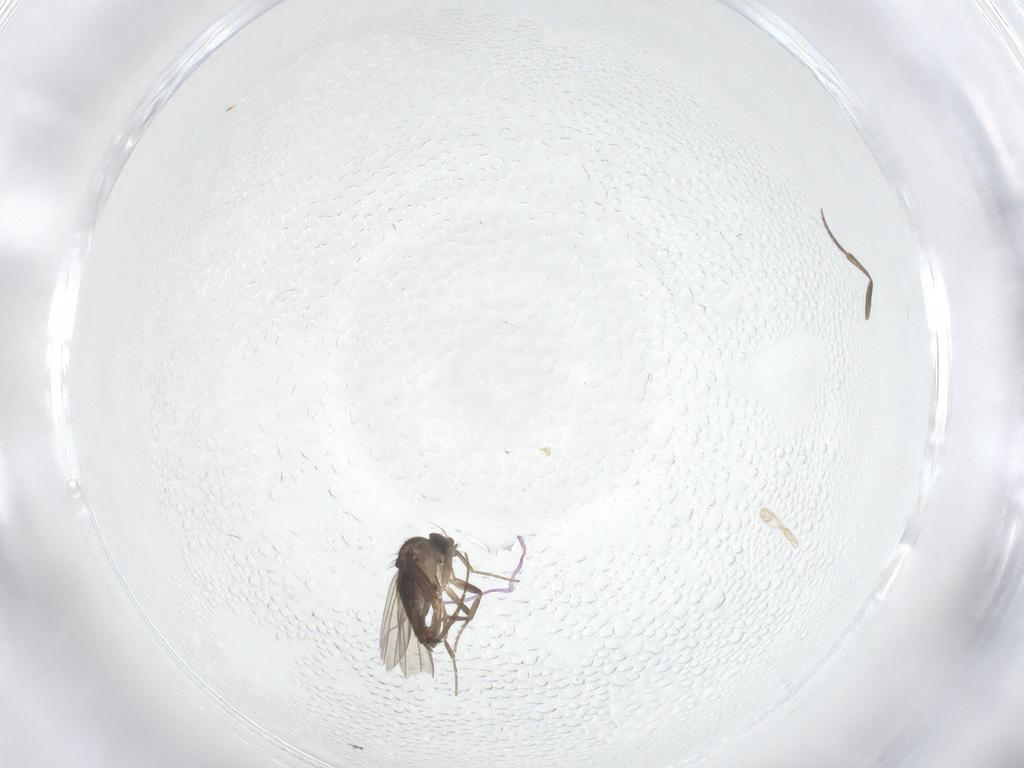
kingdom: Animalia
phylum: Arthropoda
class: Insecta
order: Diptera
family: Phoridae
